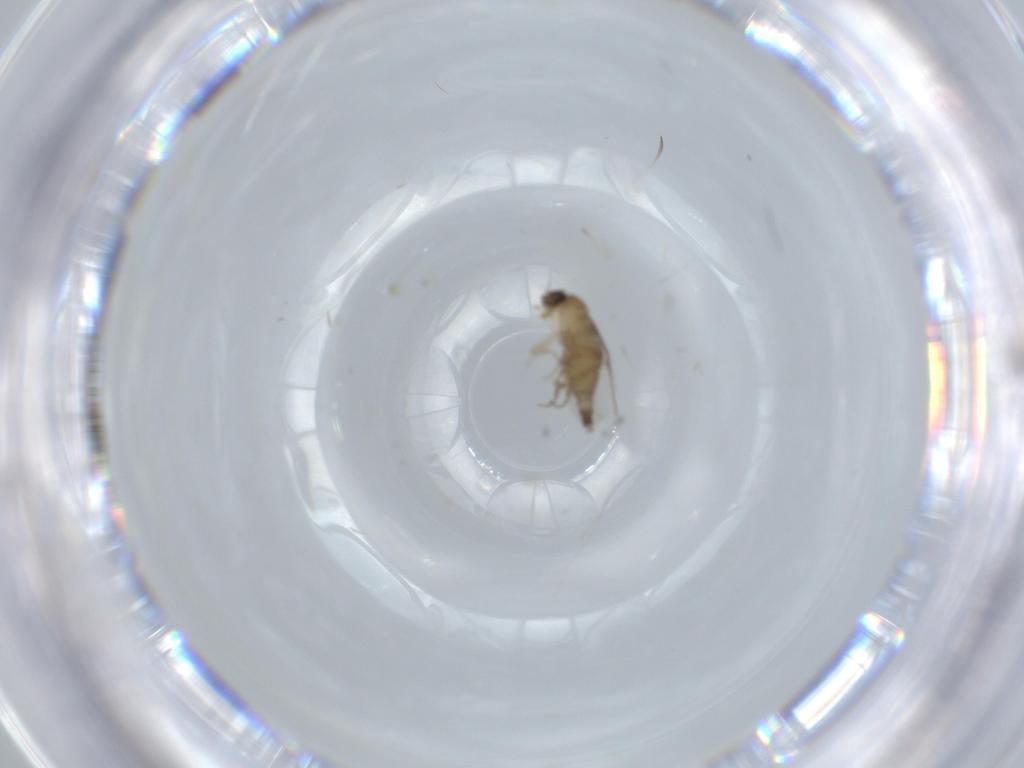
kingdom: Animalia
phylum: Arthropoda
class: Insecta
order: Diptera
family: Phoridae
